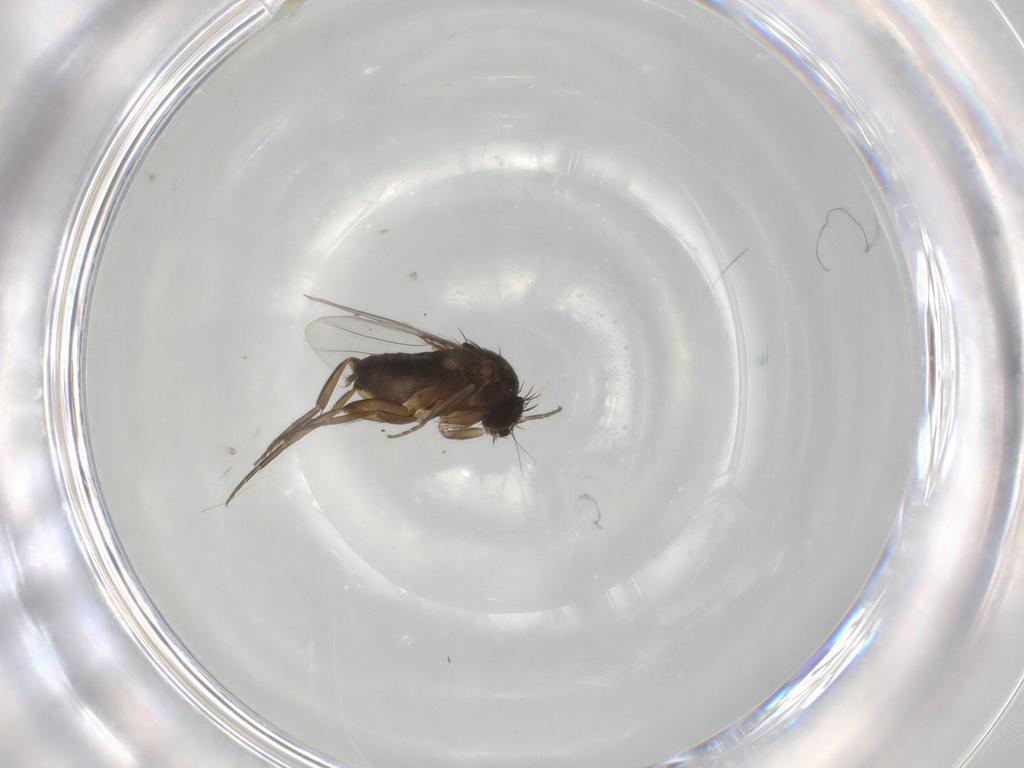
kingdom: Animalia
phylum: Arthropoda
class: Insecta
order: Diptera
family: Phoridae
